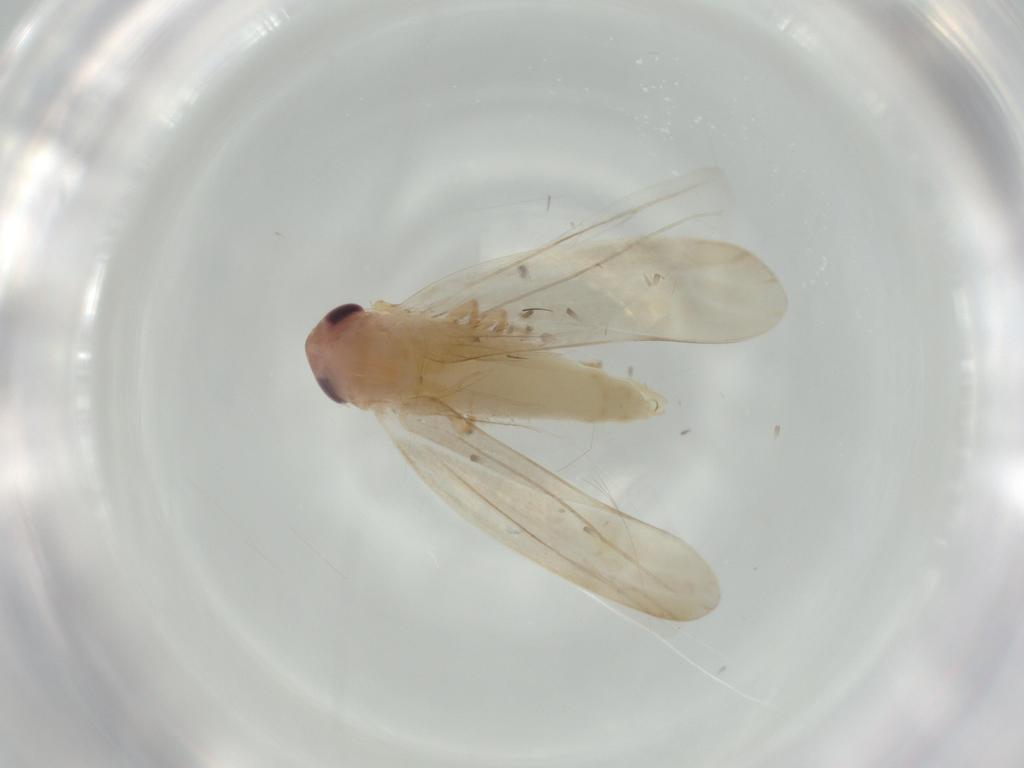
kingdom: Animalia
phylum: Arthropoda
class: Insecta
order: Hemiptera
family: Cicadellidae
